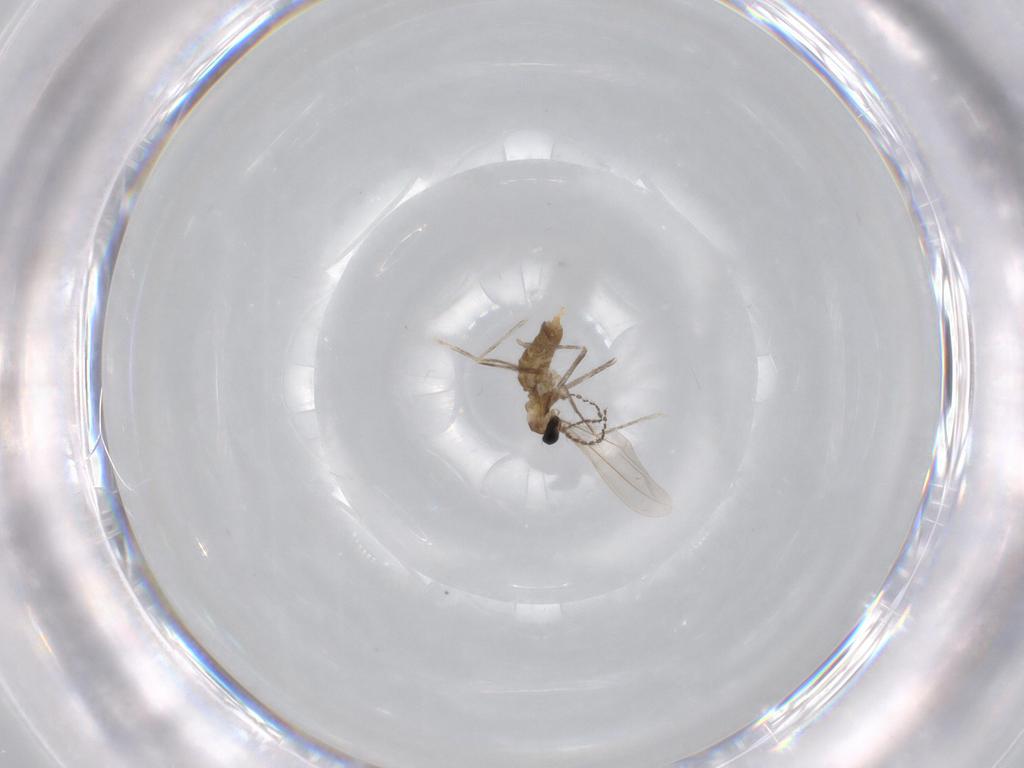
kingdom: Animalia
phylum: Arthropoda
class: Insecta
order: Diptera
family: Cecidomyiidae
